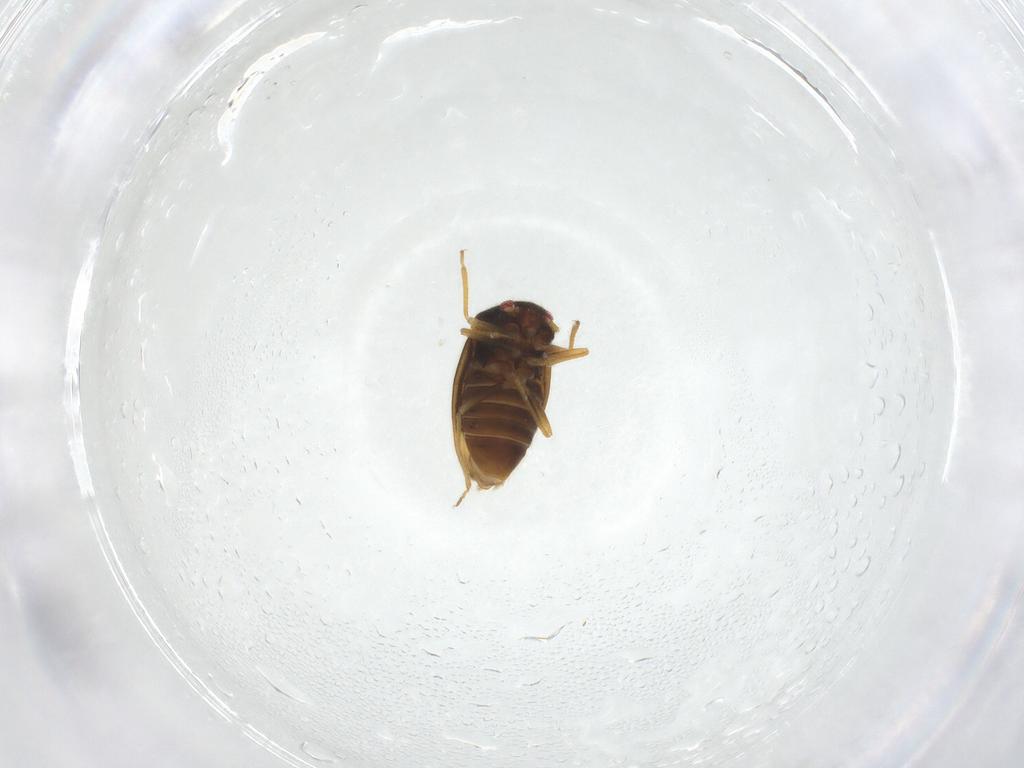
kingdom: Animalia
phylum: Arthropoda
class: Insecta
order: Hemiptera
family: Schizopteridae
